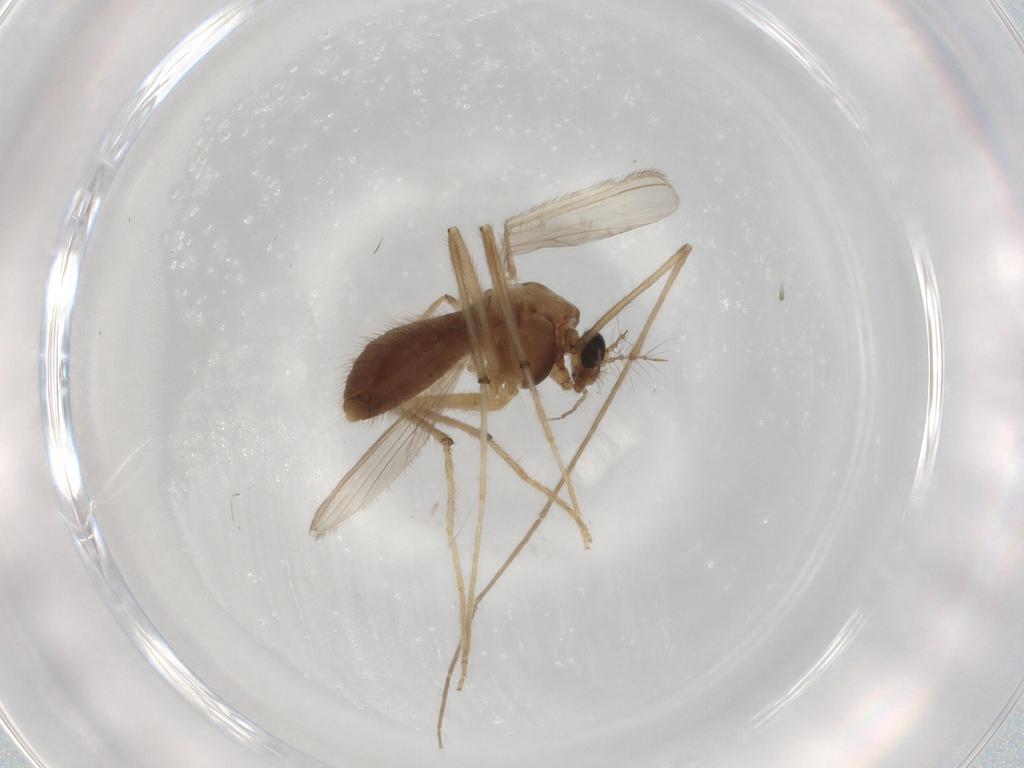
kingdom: Animalia
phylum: Arthropoda
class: Insecta
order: Diptera
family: Chironomidae
